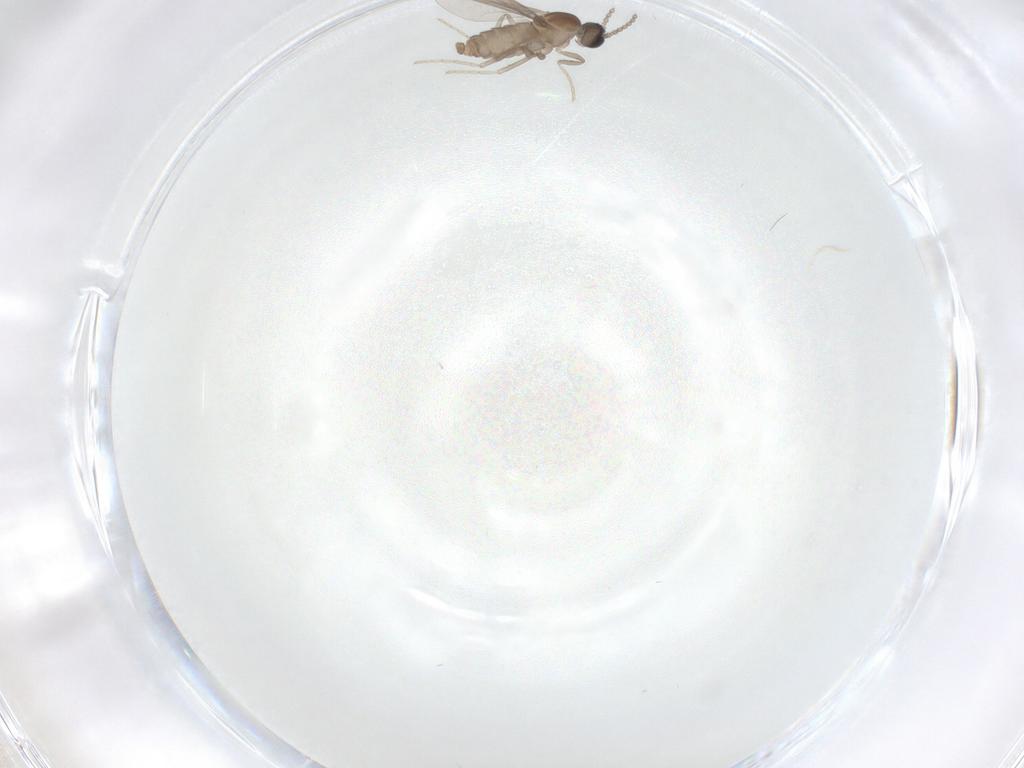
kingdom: Animalia
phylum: Arthropoda
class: Insecta
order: Diptera
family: Cecidomyiidae
